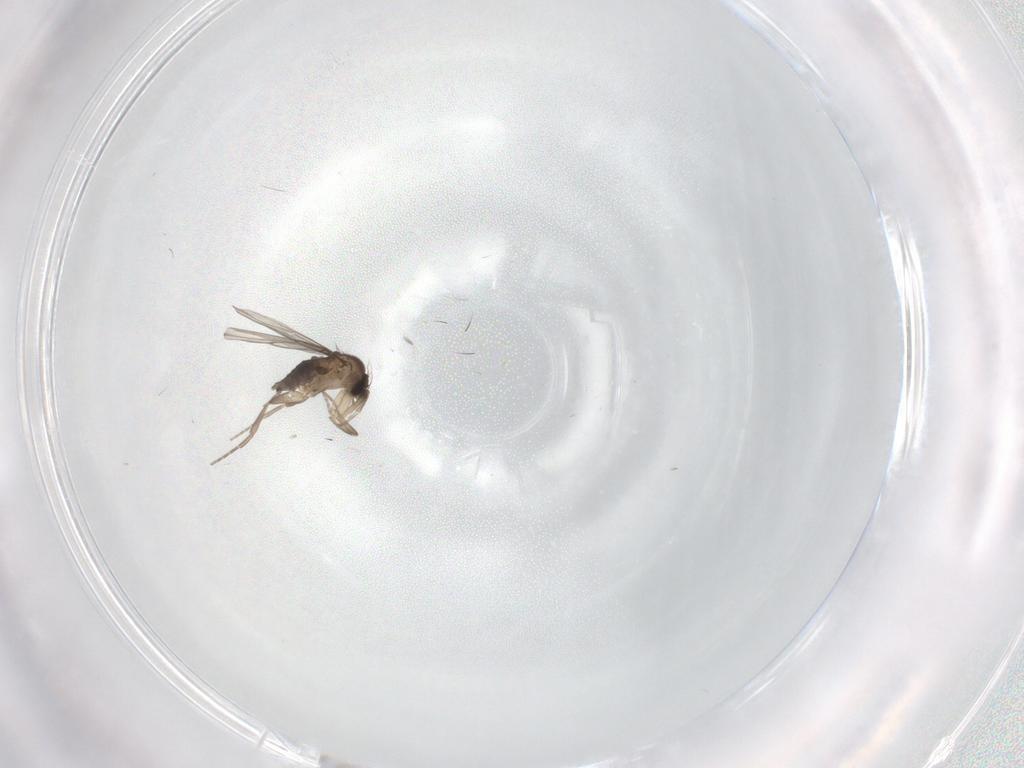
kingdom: Animalia
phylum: Arthropoda
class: Insecta
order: Diptera
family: Phoridae
